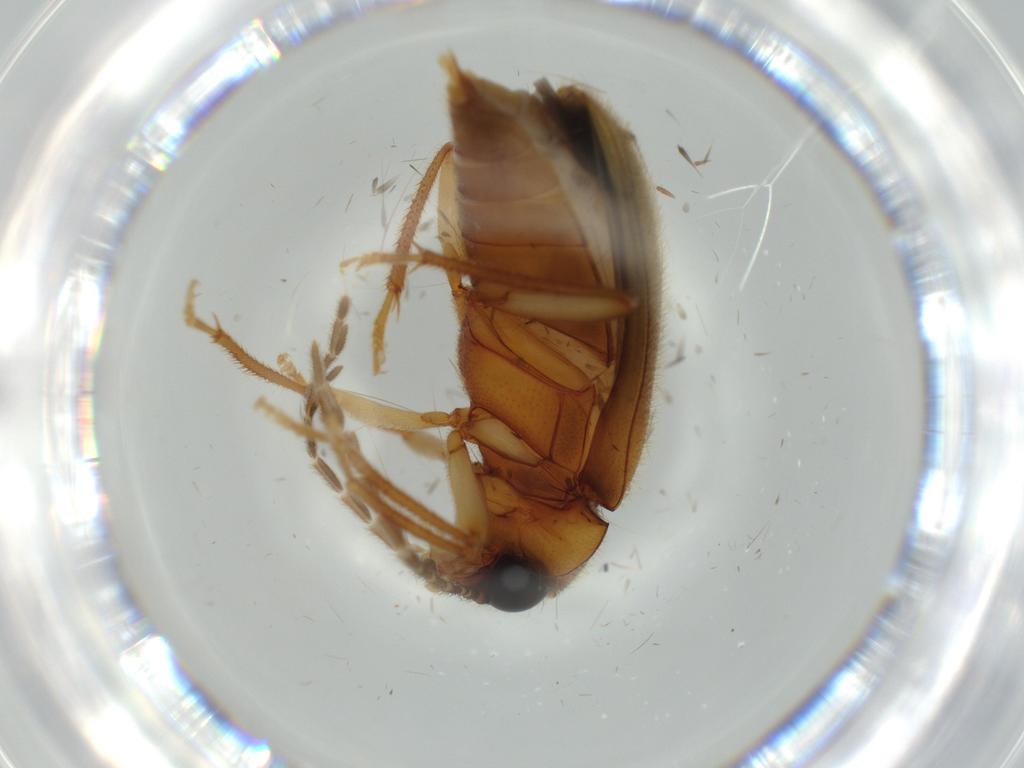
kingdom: Animalia
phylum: Arthropoda
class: Insecta
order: Coleoptera
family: Ptilodactylidae
